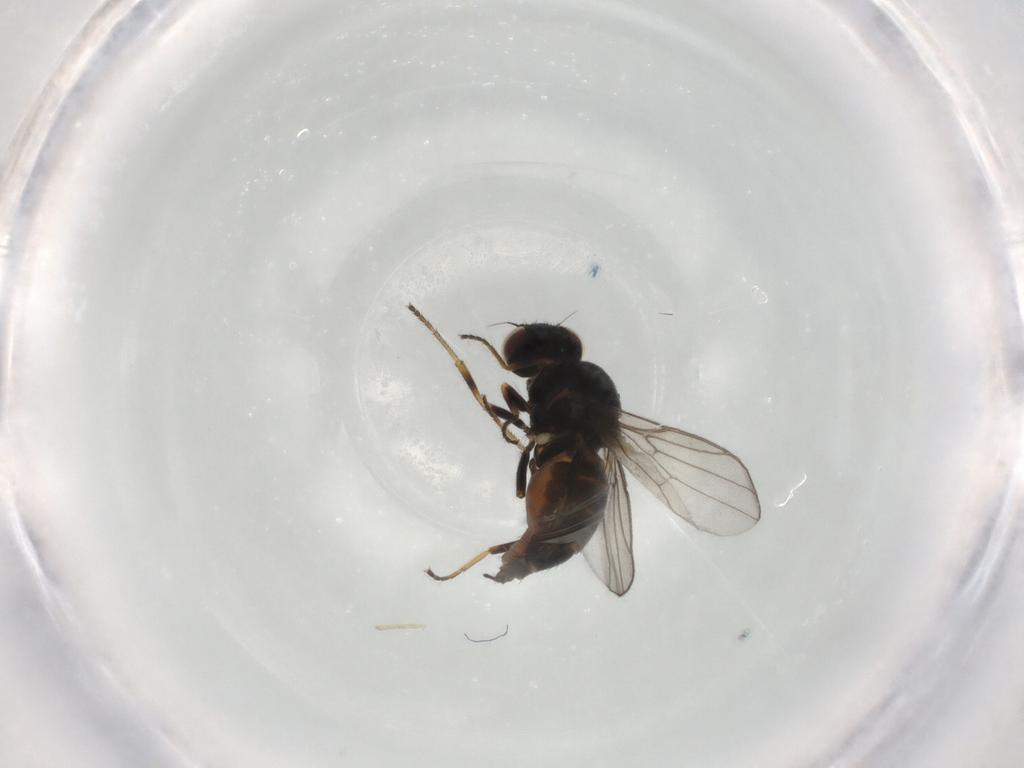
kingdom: Animalia
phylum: Arthropoda
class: Insecta
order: Diptera
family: Chloropidae
